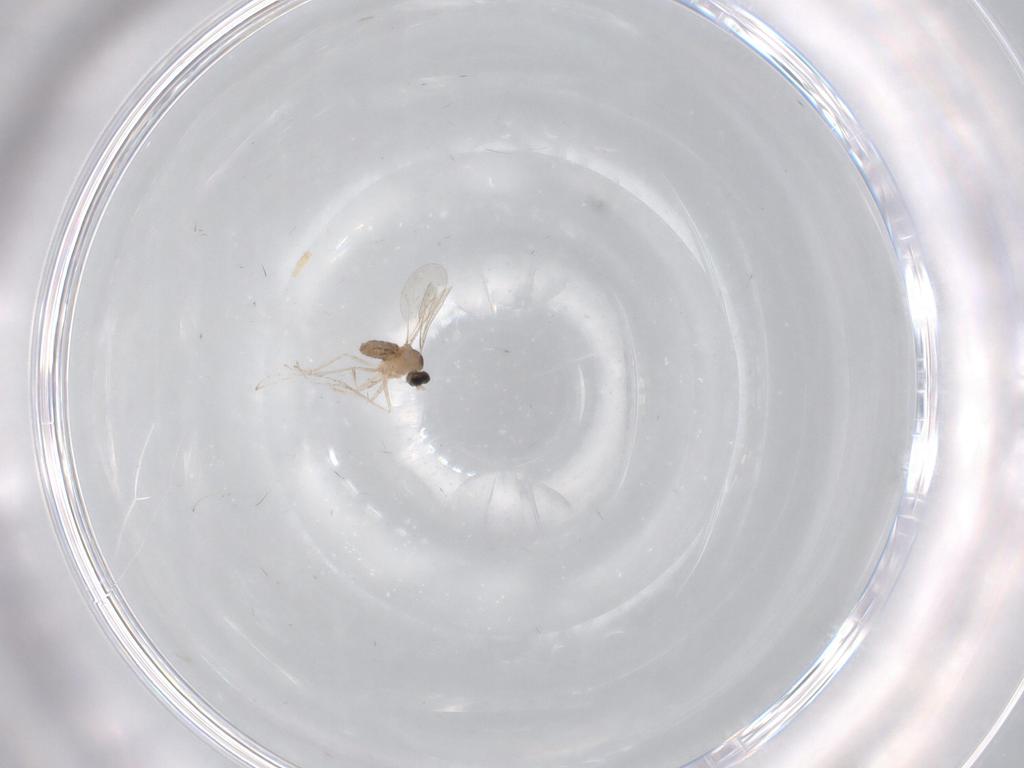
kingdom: Animalia
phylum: Arthropoda
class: Insecta
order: Diptera
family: Cecidomyiidae
